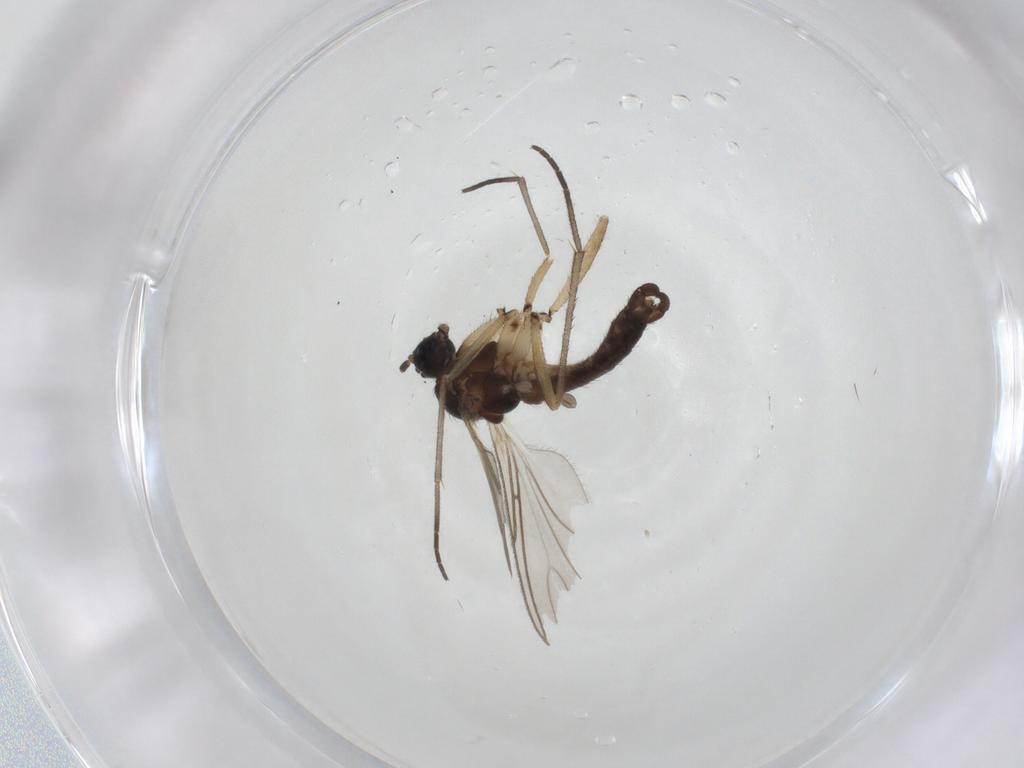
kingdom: Animalia
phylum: Arthropoda
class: Insecta
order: Diptera
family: Sciaridae
